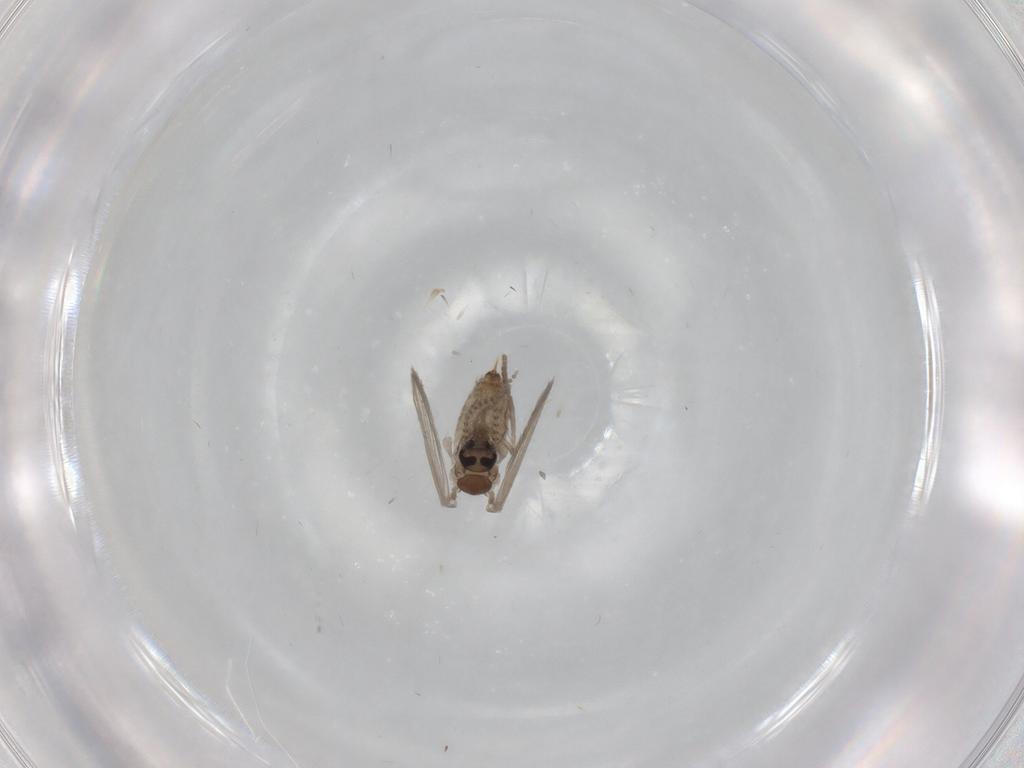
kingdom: Animalia
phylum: Arthropoda
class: Insecta
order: Diptera
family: Psychodidae
